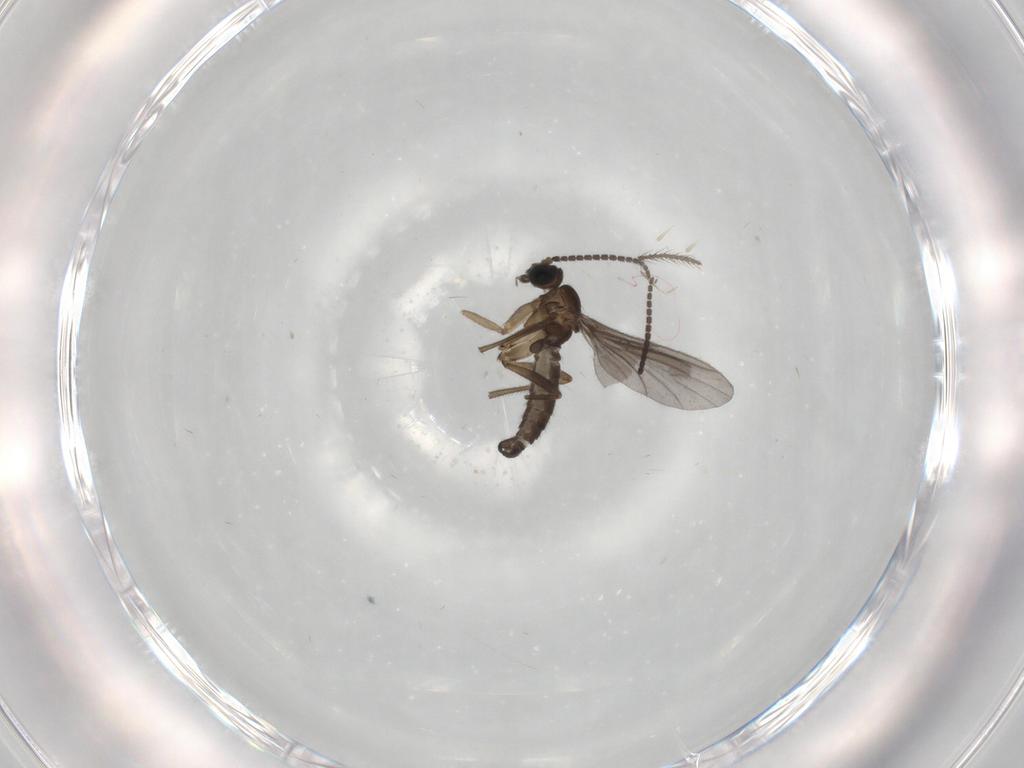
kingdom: Animalia
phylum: Arthropoda
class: Insecta
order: Diptera
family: Sciaridae
